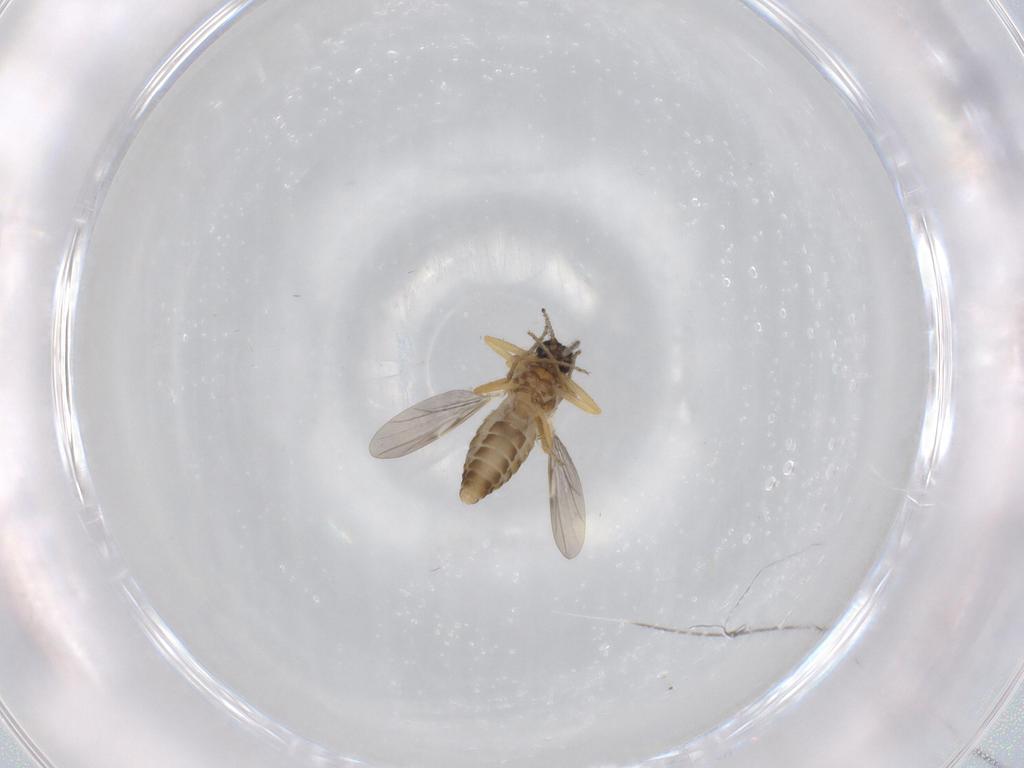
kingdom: Animalia
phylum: Arthropoda
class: Insecta
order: Diptera
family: Ceratopogonidae
